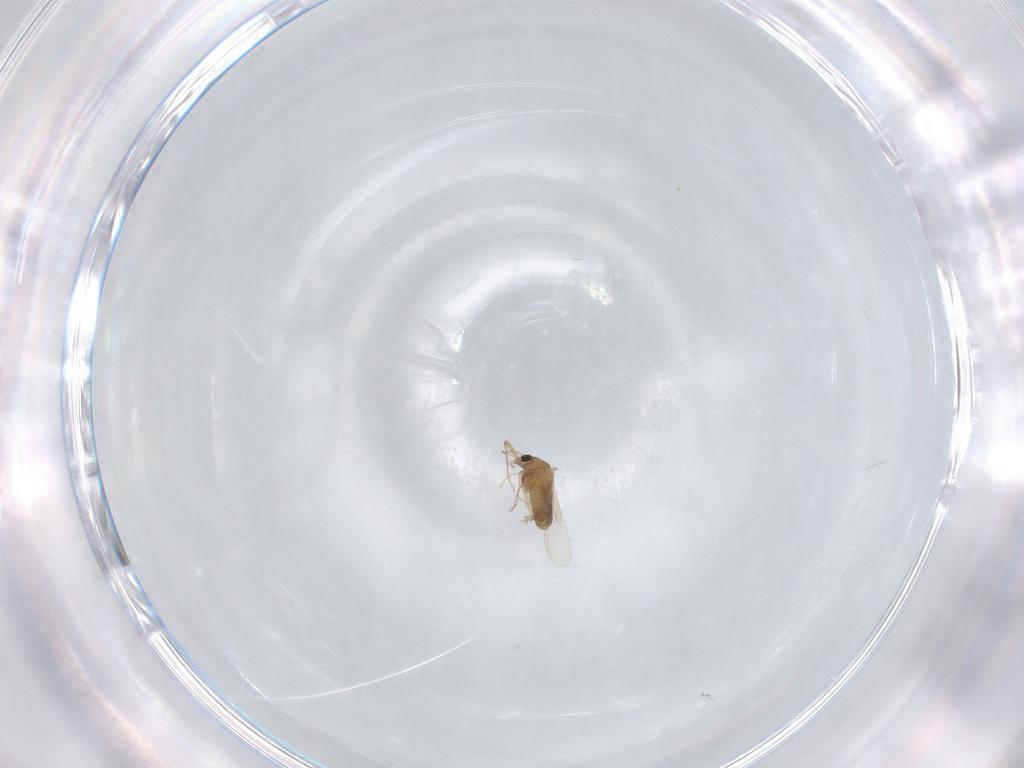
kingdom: Animalia
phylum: Arthropoda
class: Insecta
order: Diptera
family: Chironomidae
